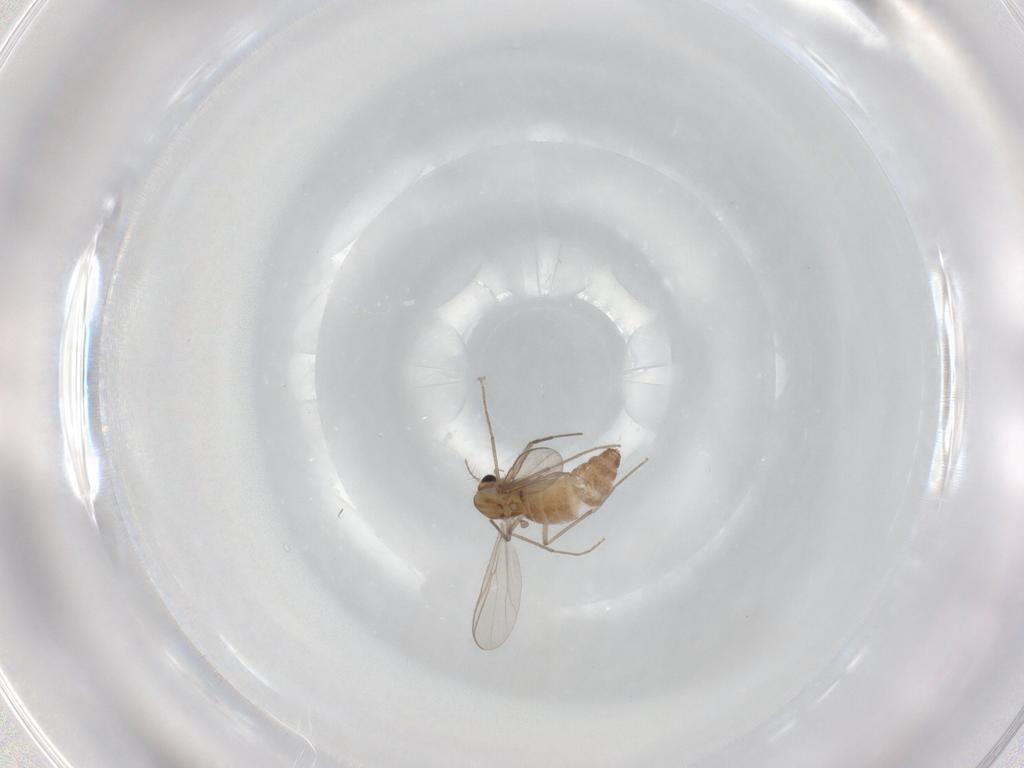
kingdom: Animalia
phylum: Arthropoda
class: Insecta
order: Diptera
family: Chironomidae
